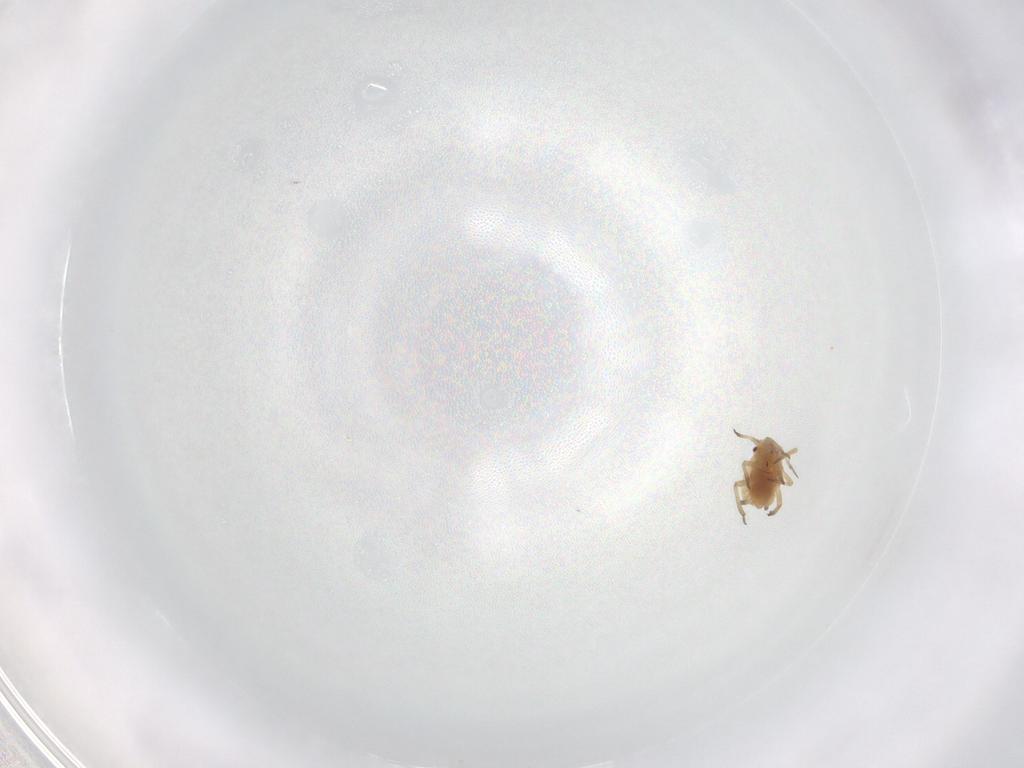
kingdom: Animalia
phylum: Arthropoda
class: Insecta
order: Hemiptera
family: Aphididae
